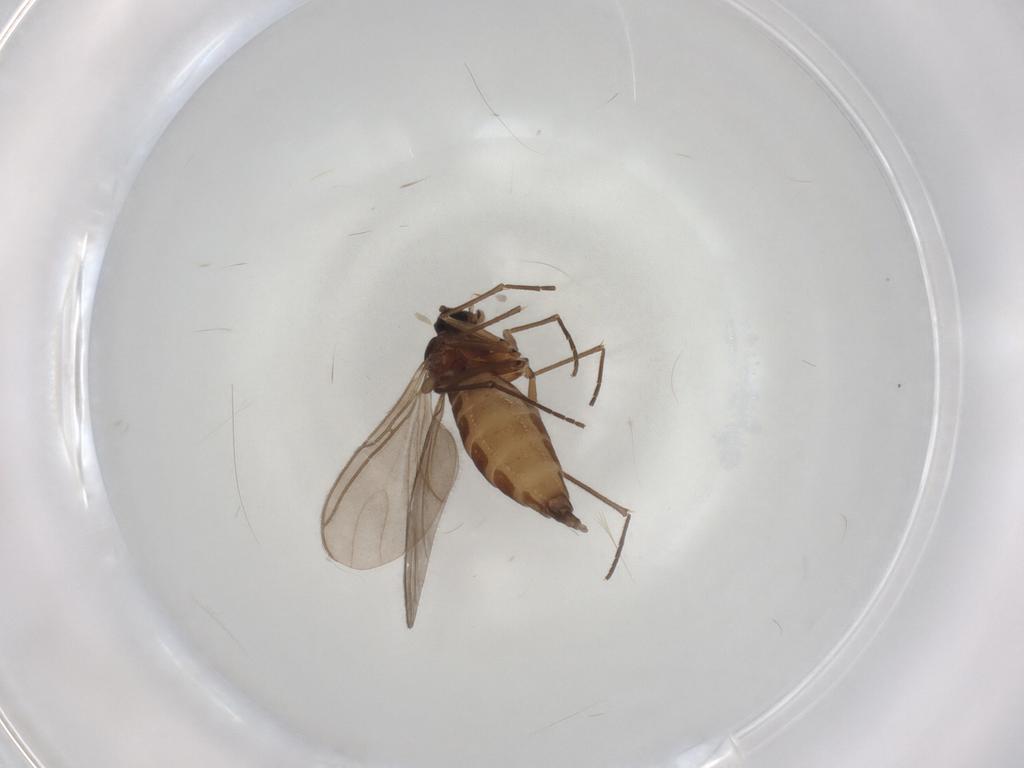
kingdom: Animalia
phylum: Arthropoda
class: Insecta
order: Diptera
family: Sciaridae
